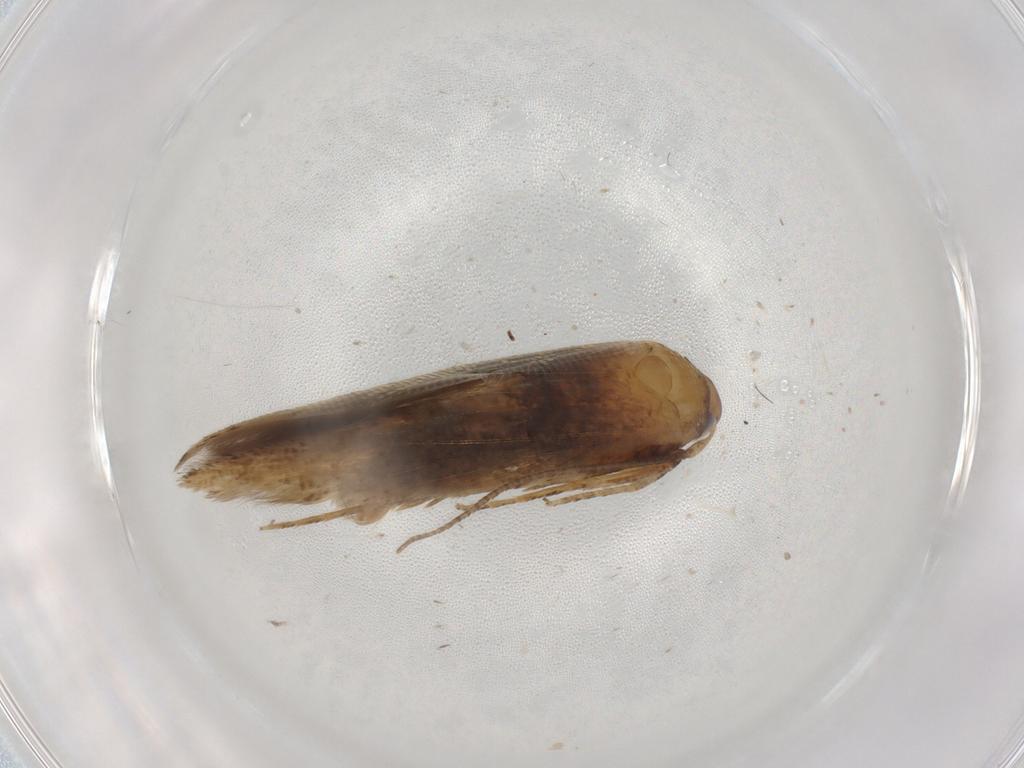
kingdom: Animalia
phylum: Arthropoda
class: Insecta
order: Lepidoptera
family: Cosmopterigidae
